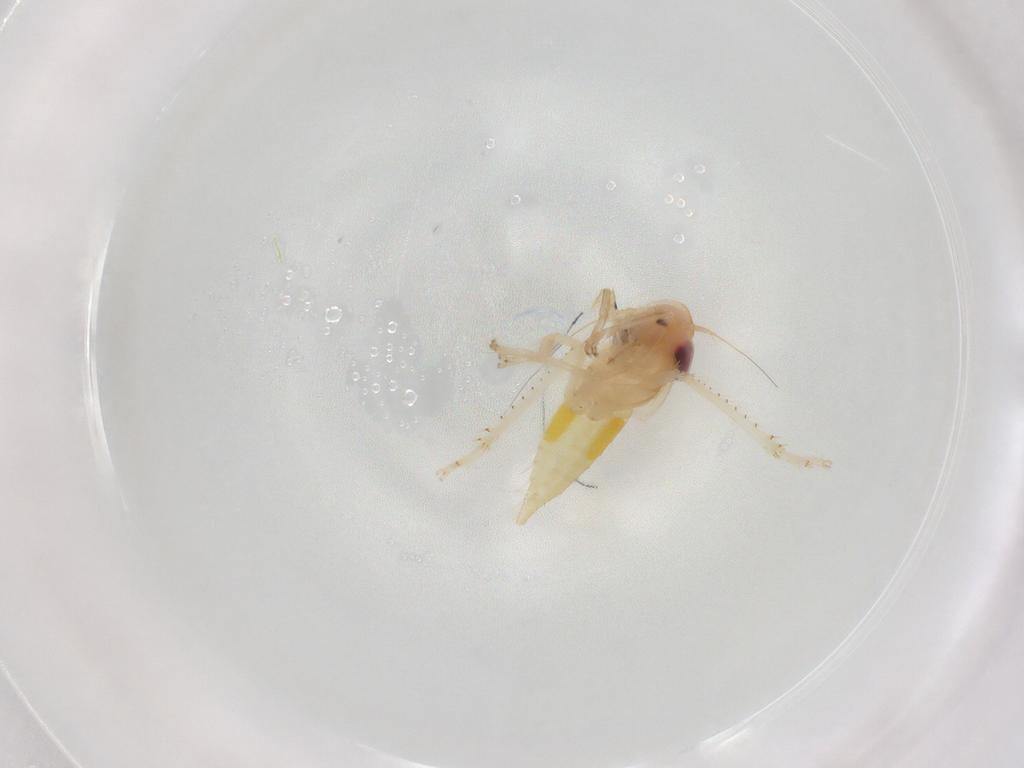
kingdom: Animalia
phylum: Arthropoda
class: Insecta
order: Hemiptera
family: Cicadellidae
